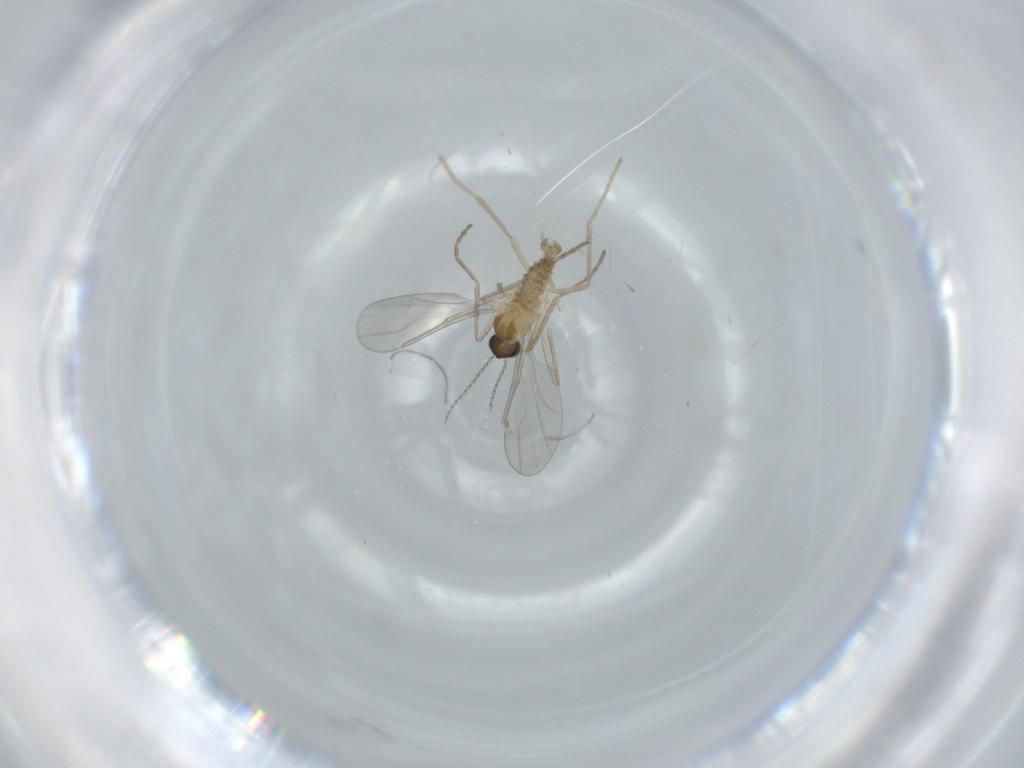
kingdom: Animalia
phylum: Arthropoda
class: Insecta
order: Diptera
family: Cecidomyiidae
